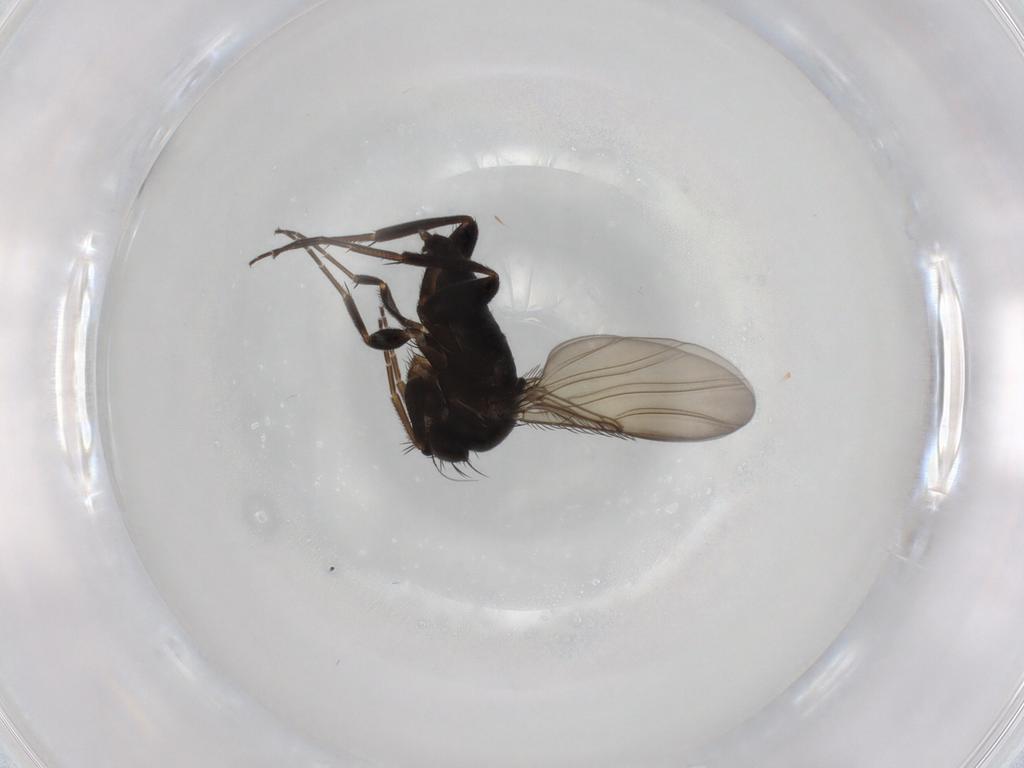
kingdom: Animalia
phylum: Arthropoda
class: Insecta
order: Diptera
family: Phoridae
